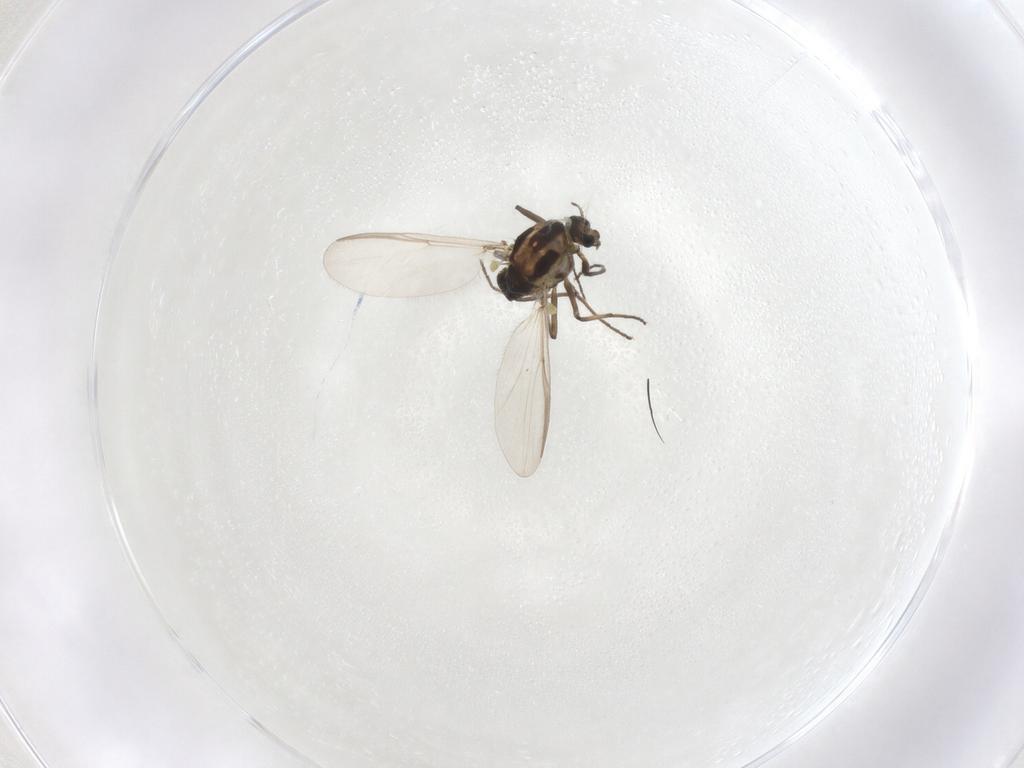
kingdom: Animalia
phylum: Arthropoda
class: Insecta
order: Diptera
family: Chironomidae
